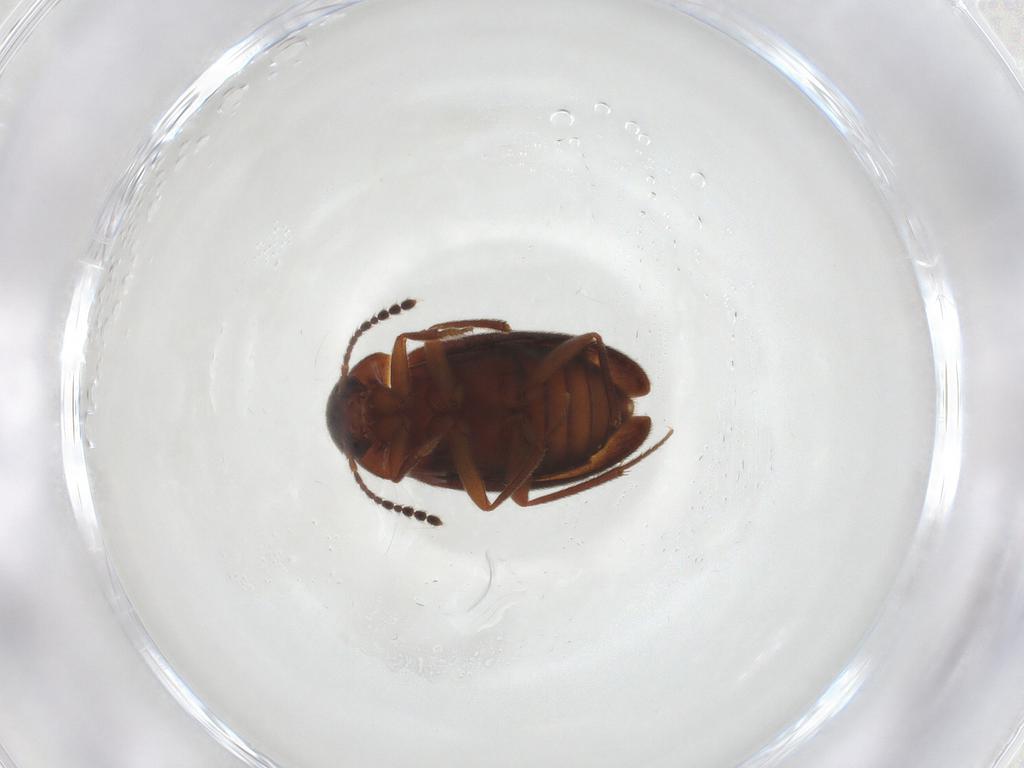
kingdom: Animalia
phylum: Arthropoda
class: Insecta
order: Coleoptera
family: Leiodidae
